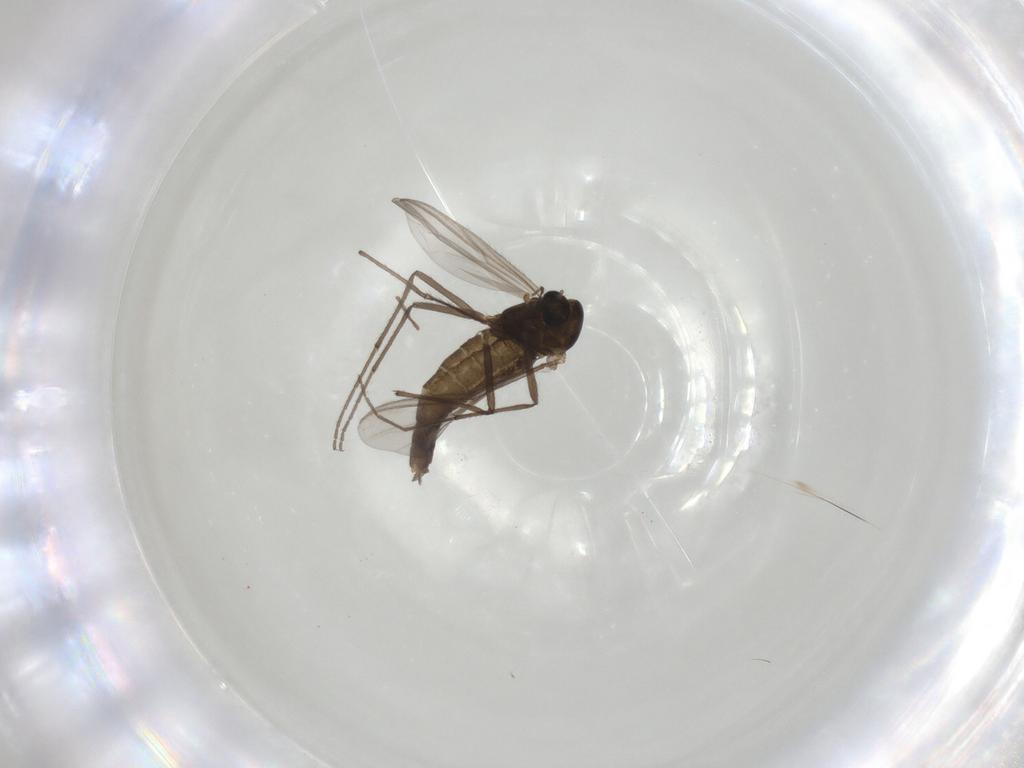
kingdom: Animalia
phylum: Arthropoda
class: Insecta
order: Diptera
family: Chironomidae
